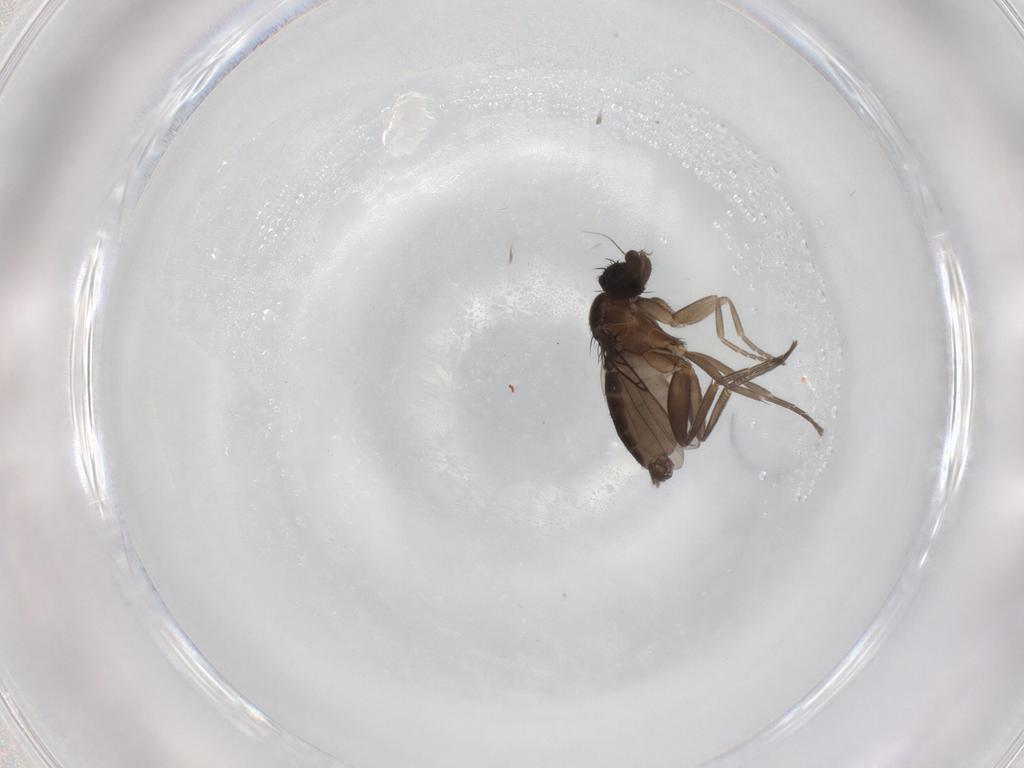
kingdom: Animalia
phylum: Arthropoda
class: Insecta
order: Diptera
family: Phoridae
